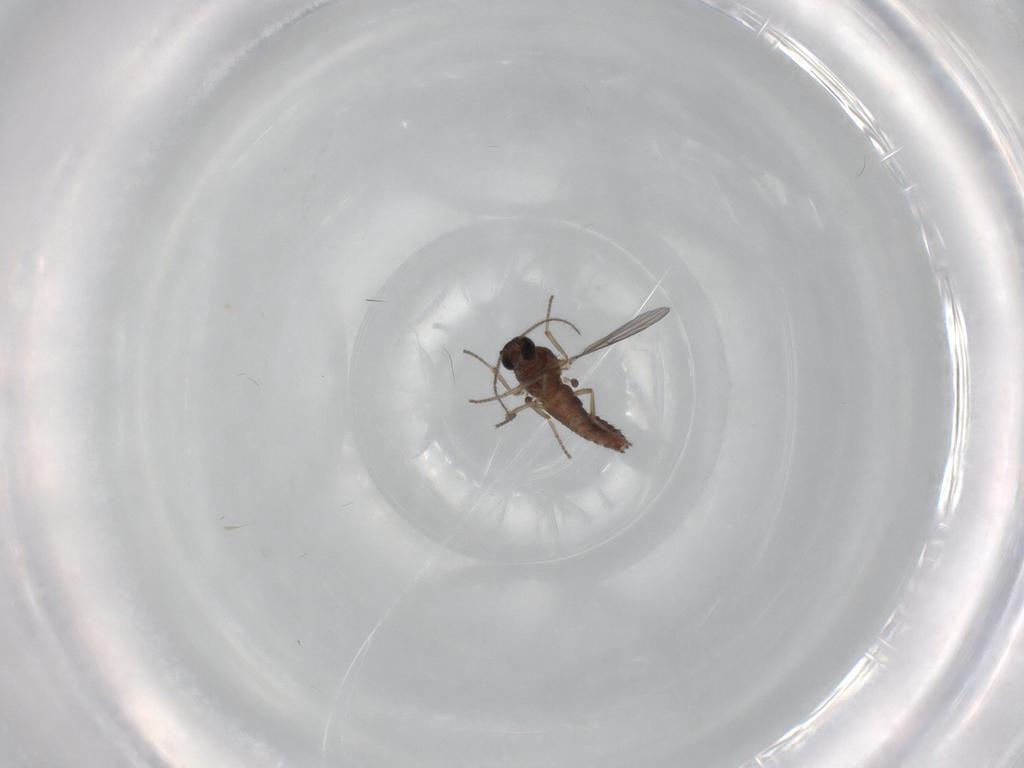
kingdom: Animalia
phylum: Arthropoda
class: Insecta
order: Diptera
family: Ceratopogonidae
